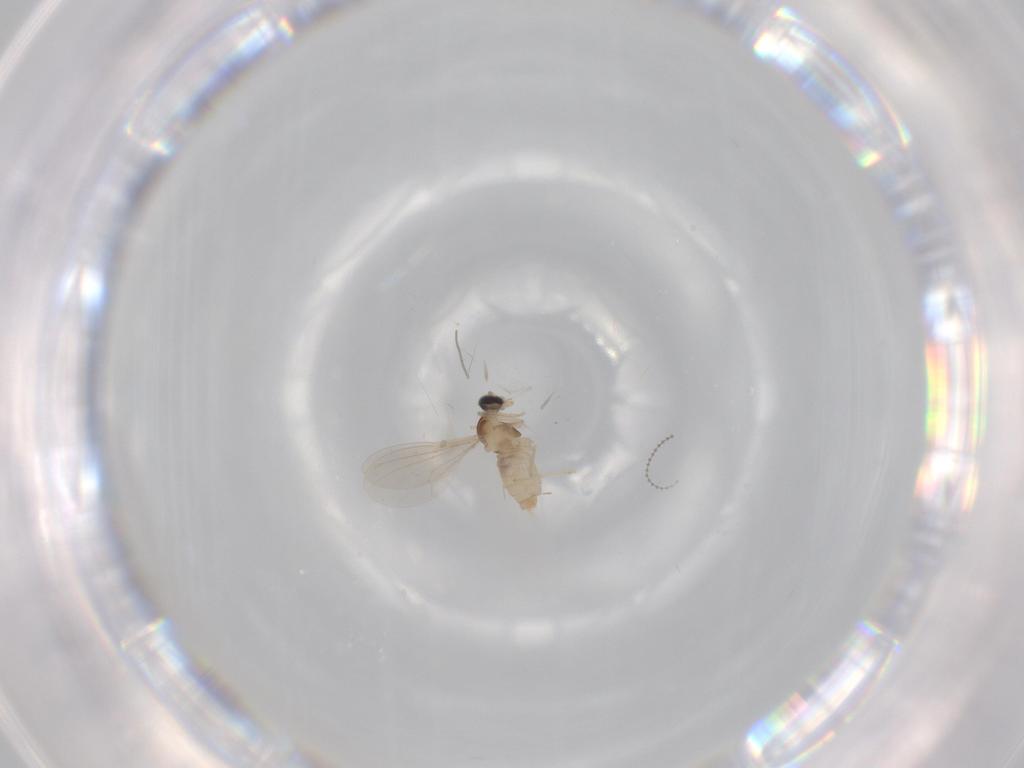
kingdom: Animalia
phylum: Arthropoda
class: Insecta
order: Diptera
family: Cecidomyiidae
